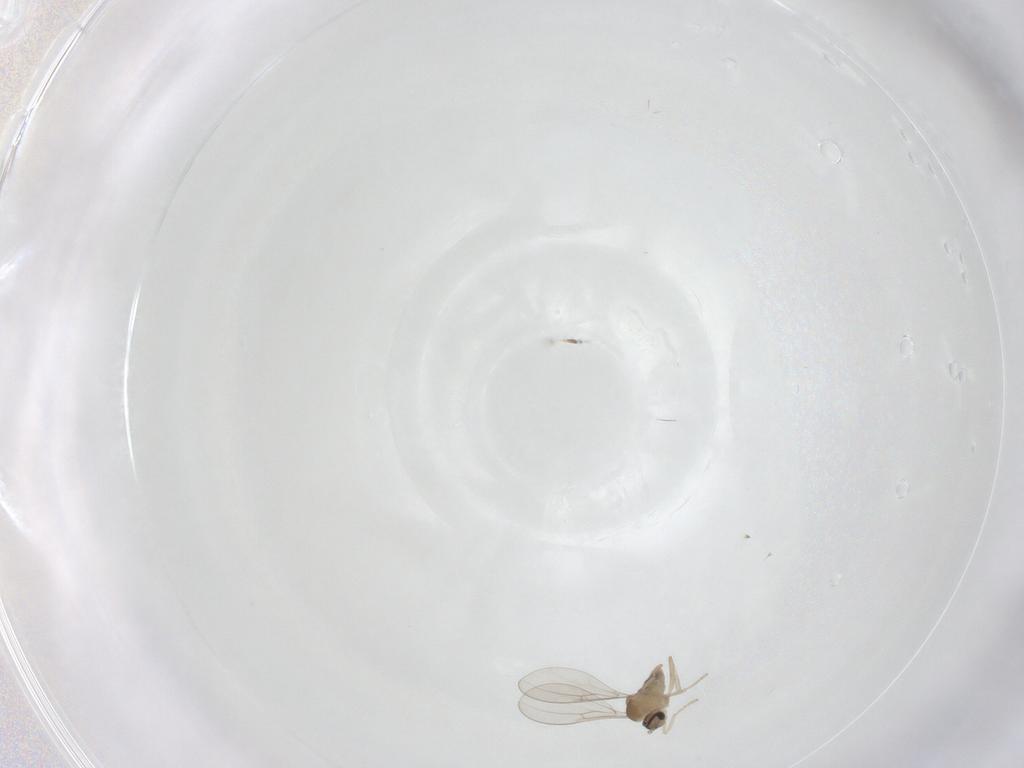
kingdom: Animalia
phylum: Arthropoda
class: Insecta
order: Diptera
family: Cecidomyiidae
